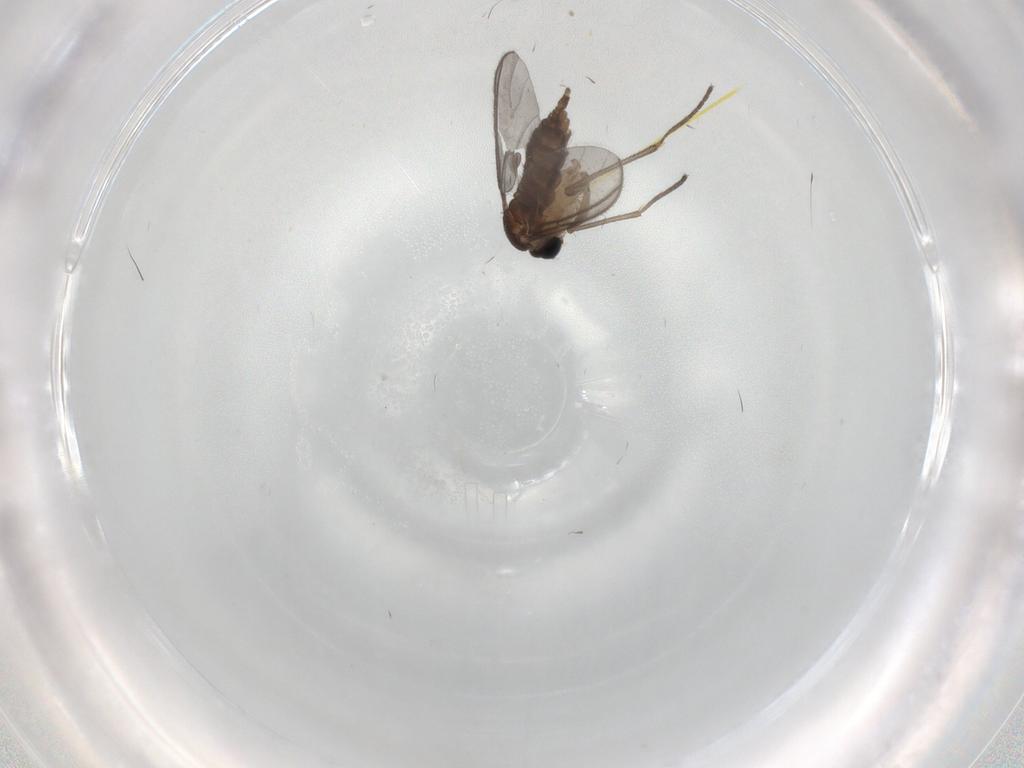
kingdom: Animalia
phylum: Arthropoda
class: Insecta
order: Diptera
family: Sciaridae
